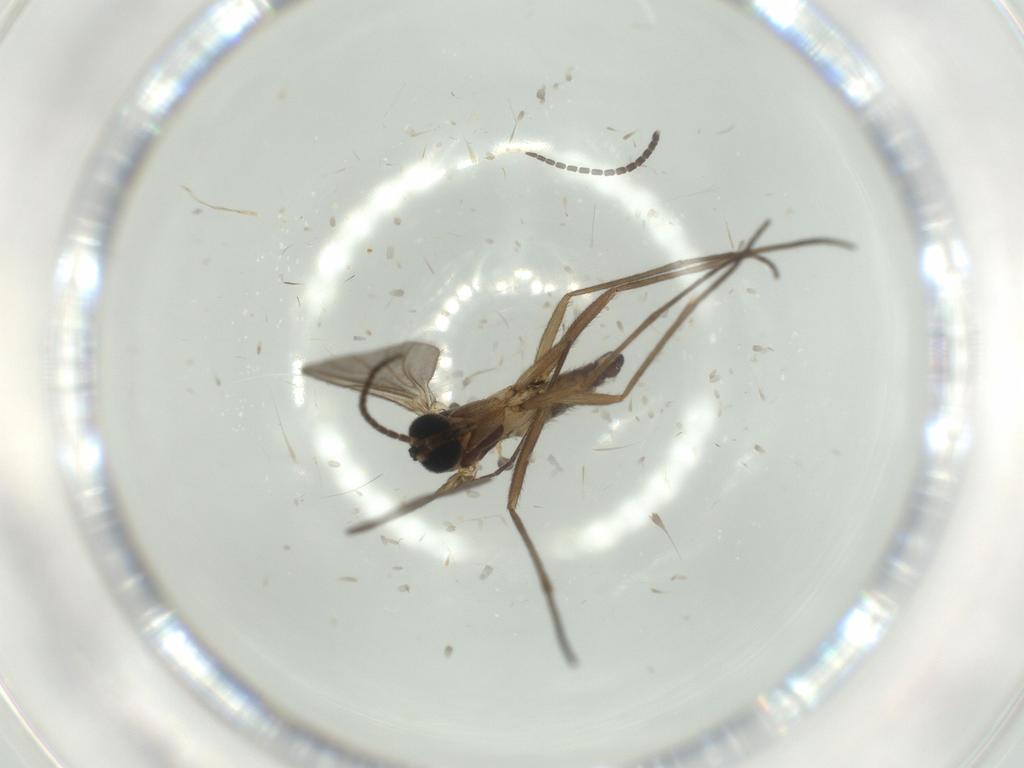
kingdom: Animalia
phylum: Arthropoda
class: Insecta
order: Diptera
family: Sciaridae
